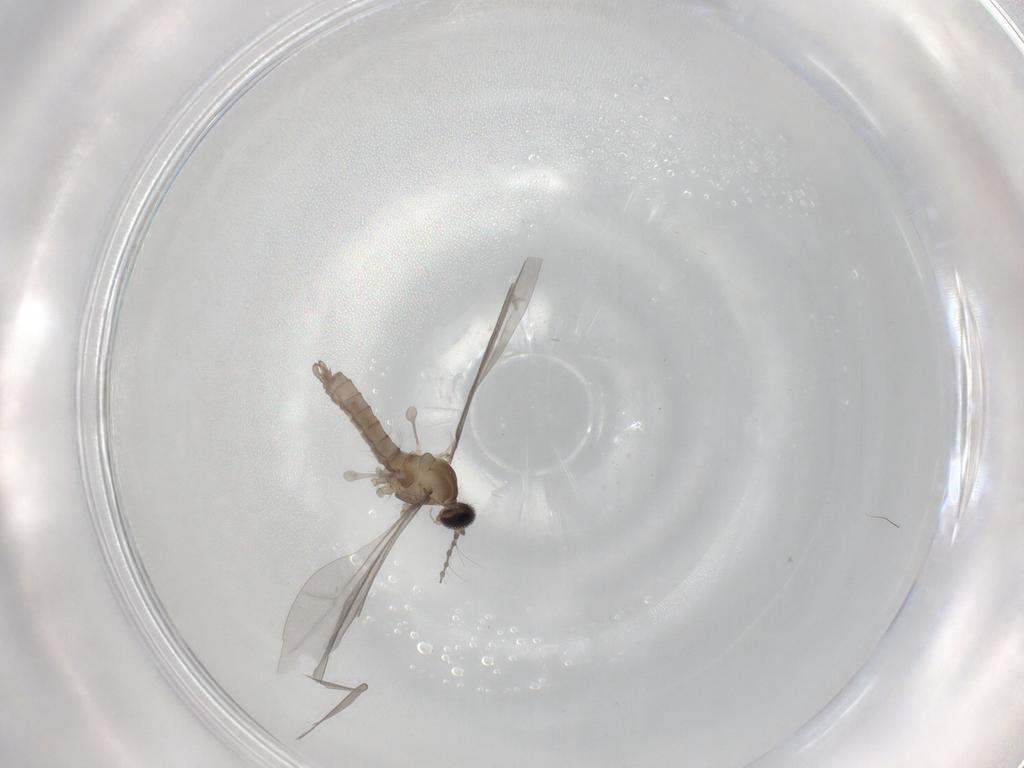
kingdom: Animalia
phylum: Arthropoda
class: Insecta
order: Diptera
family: Cecidomyiidae
